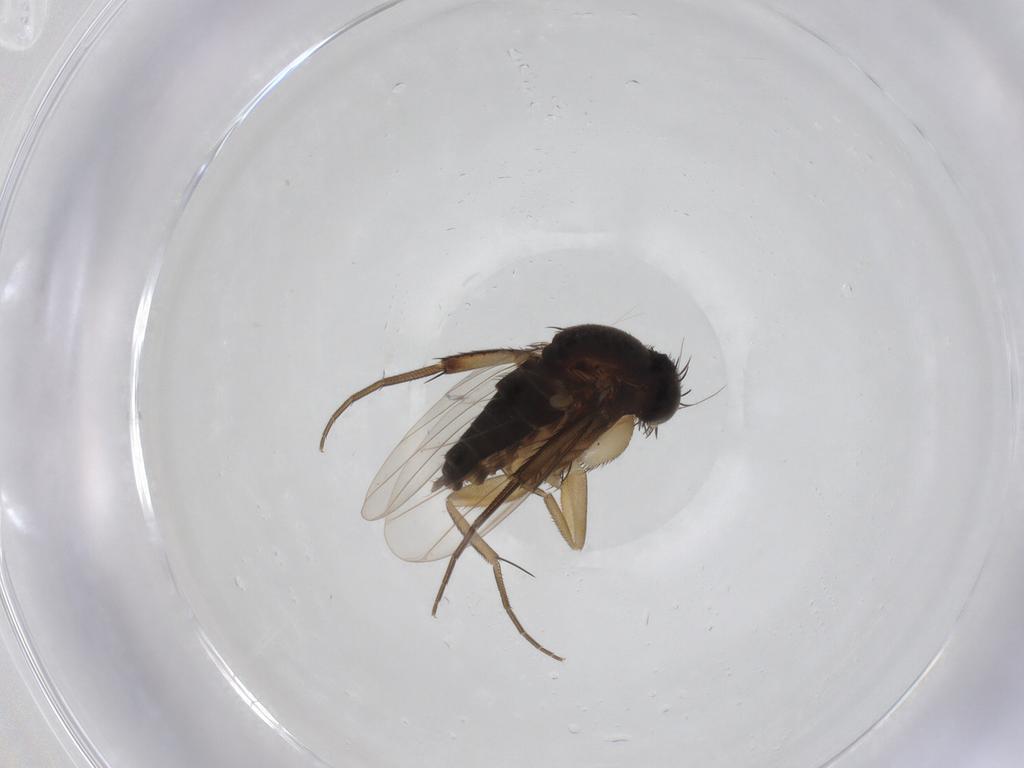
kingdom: Animalia
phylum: Arthropoda
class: Insecta
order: Diptera
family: Phoridae
